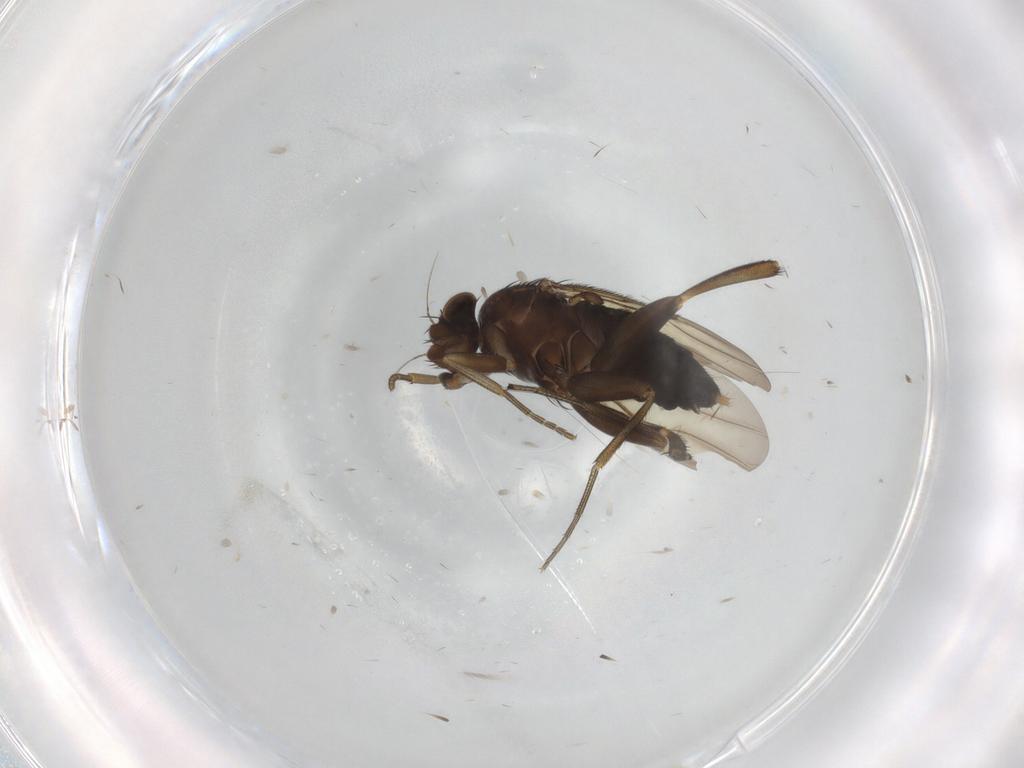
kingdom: Animalia
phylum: Arthropoda
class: Insecta
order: Diptera
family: Phoridae
